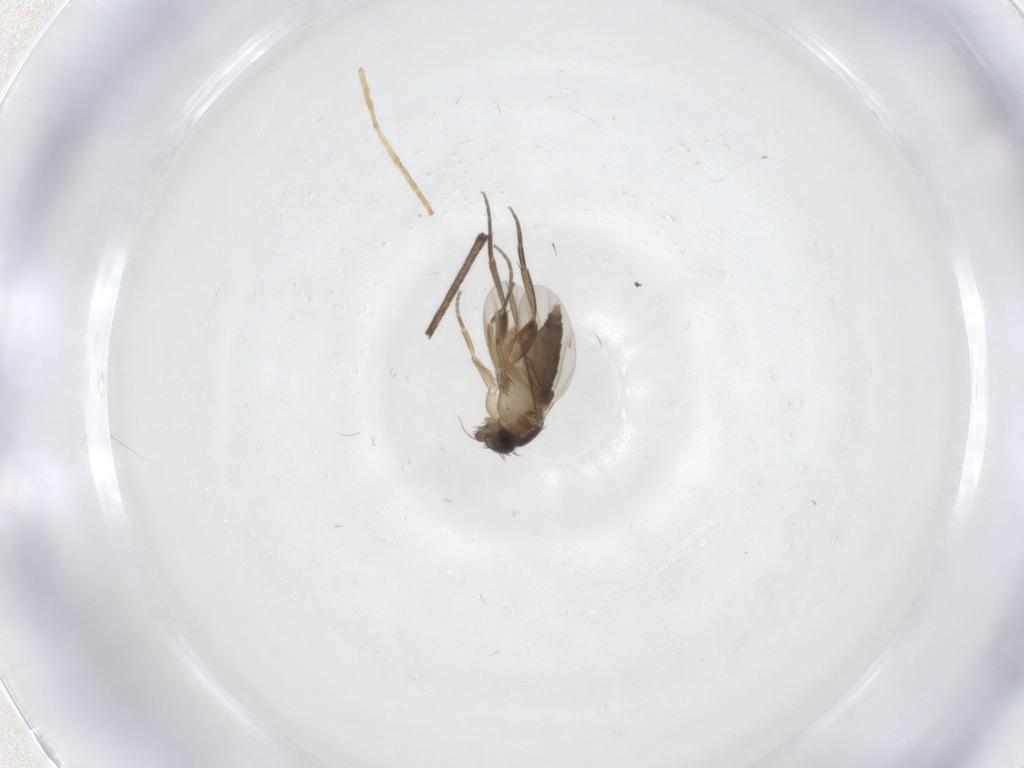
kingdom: Animalia
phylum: Arthropoda
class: Insecta
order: Diptera
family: Phoridae
